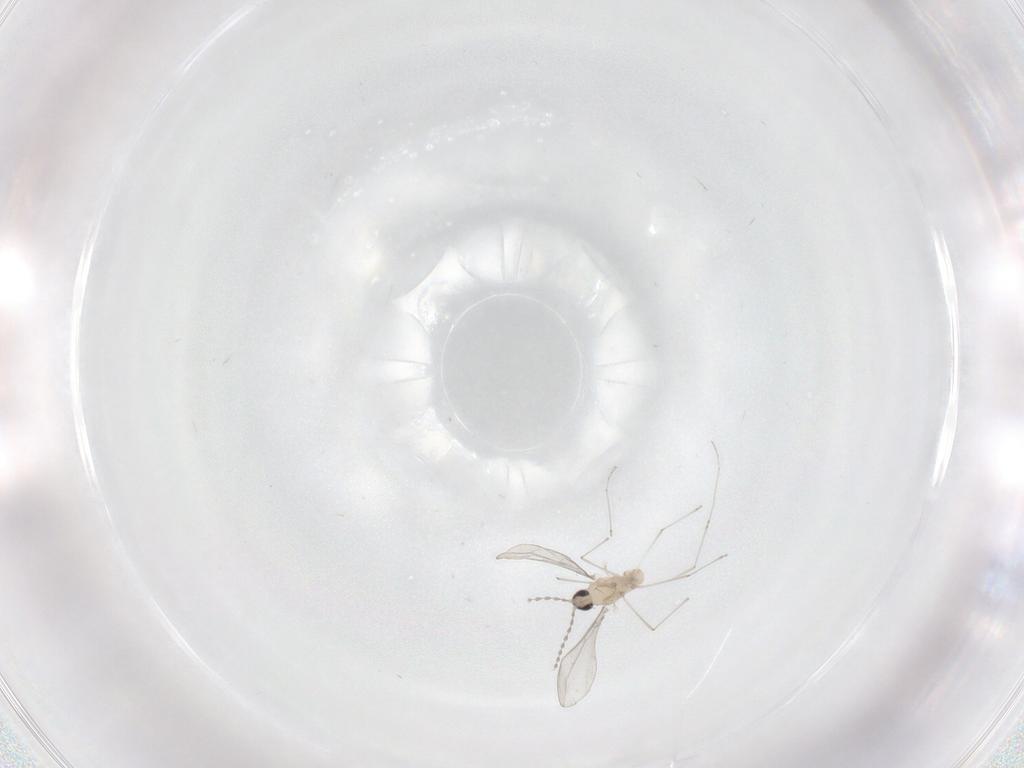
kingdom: Animalia
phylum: Arthropoda
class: Insecta
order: Diptera
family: Cecidomyiidae
